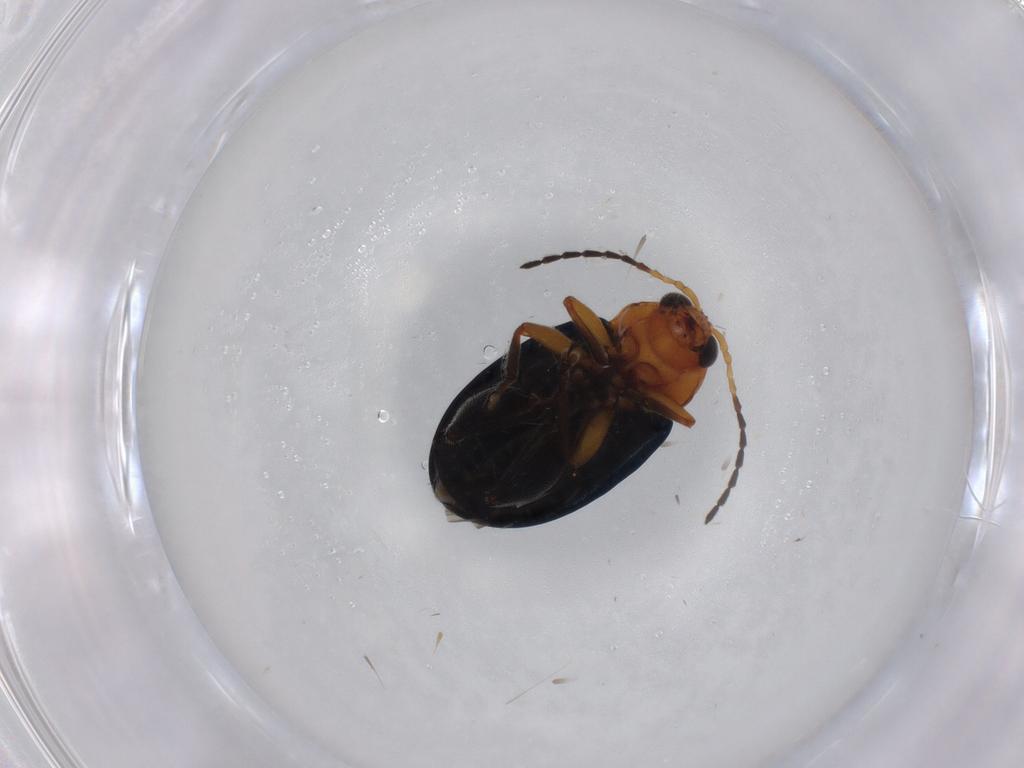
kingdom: Animalia
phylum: Arthropoda
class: Insecta
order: Coleoptera
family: Chrysomelidae
